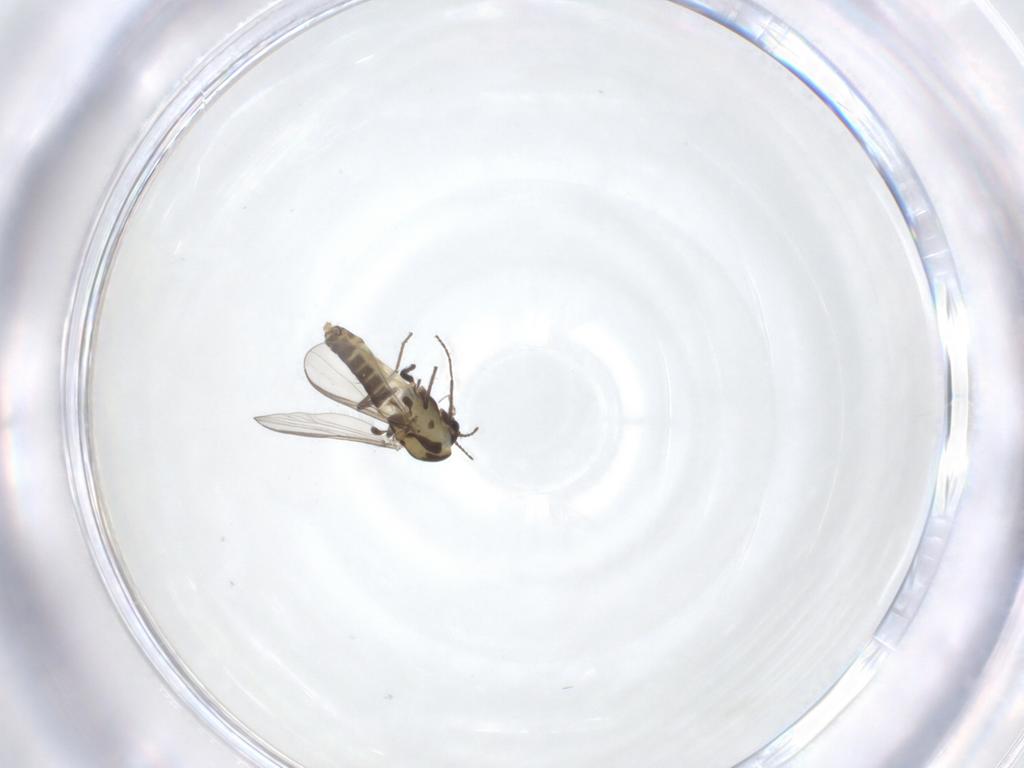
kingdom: Animalia
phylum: Arthropoda
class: Insecta
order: Diptera
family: Chironomidae
